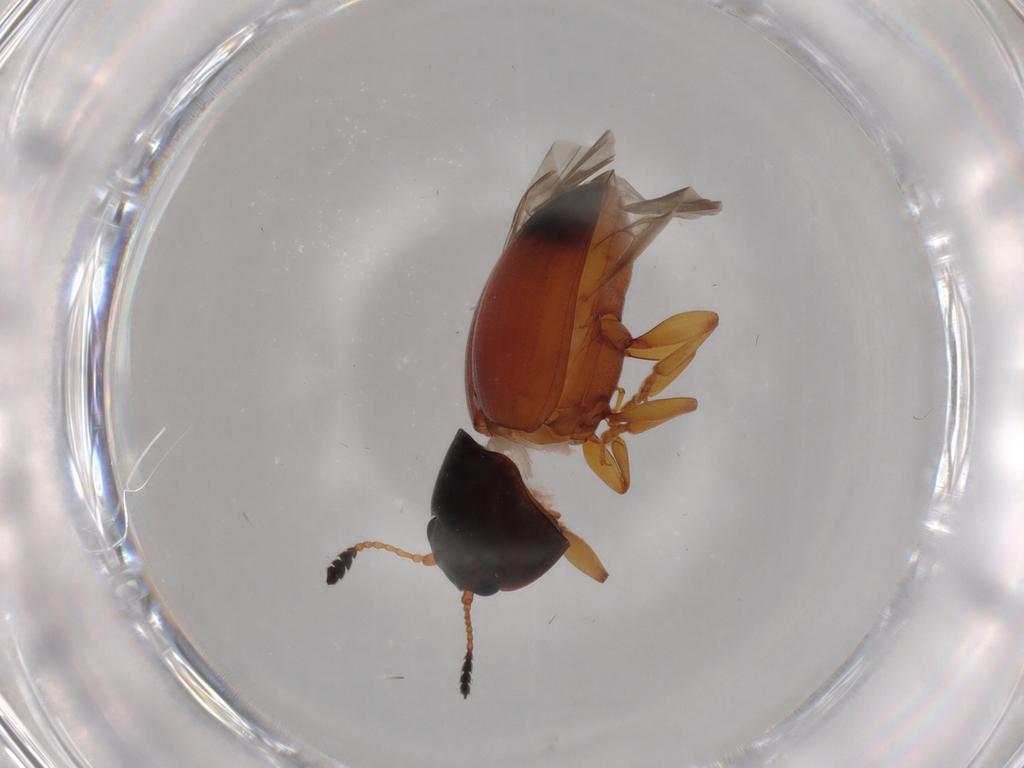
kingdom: Animalia
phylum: Arthropoda
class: Insecta
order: Coleoptera
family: Erotylidae
